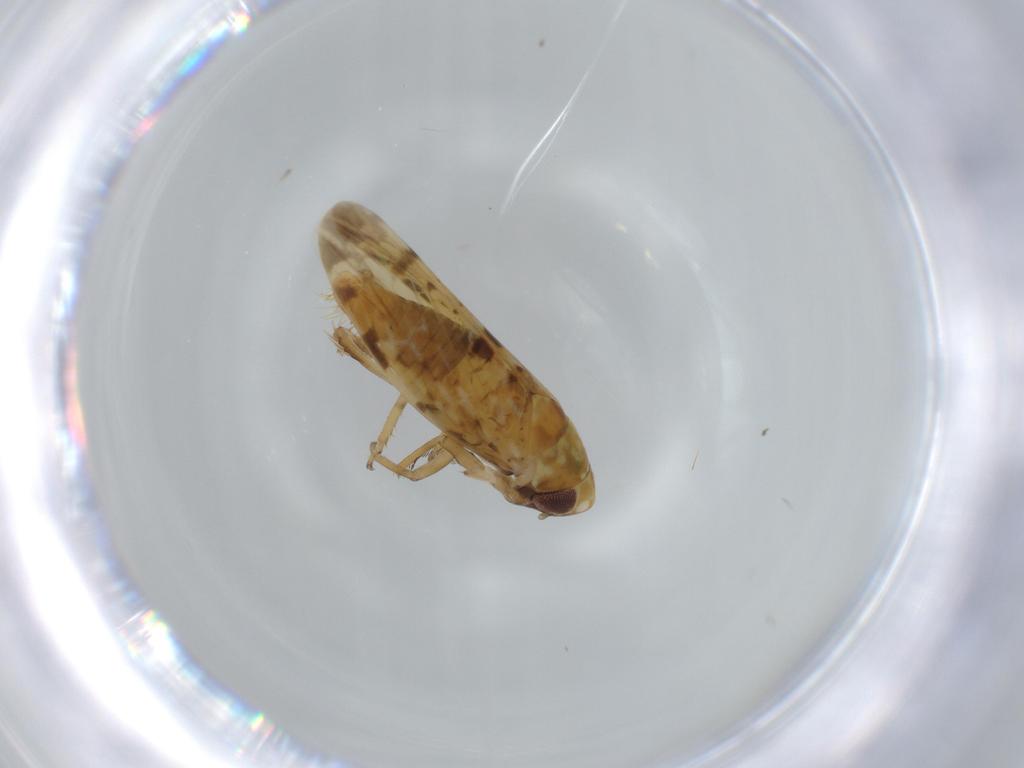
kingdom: Animalia
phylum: Arthropoda
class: Insecta
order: Hemiptera
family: Cicadellidae
